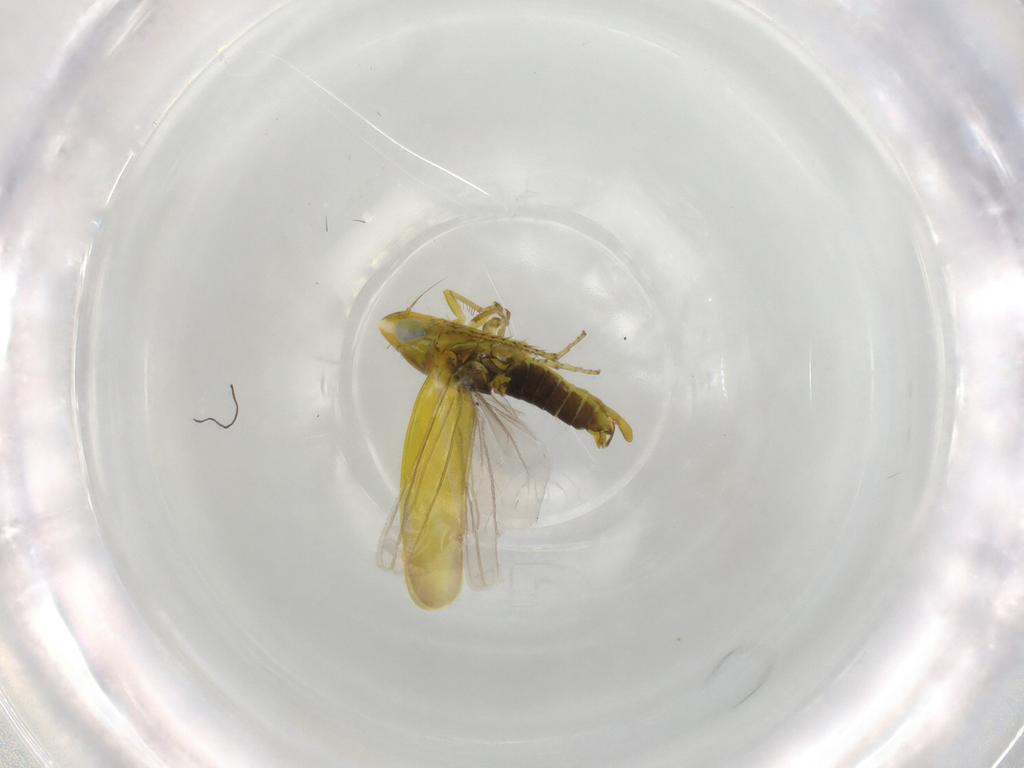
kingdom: Animalia
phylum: Arthropoda
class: Insecta
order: Hemiptera
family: Cicadellidae
